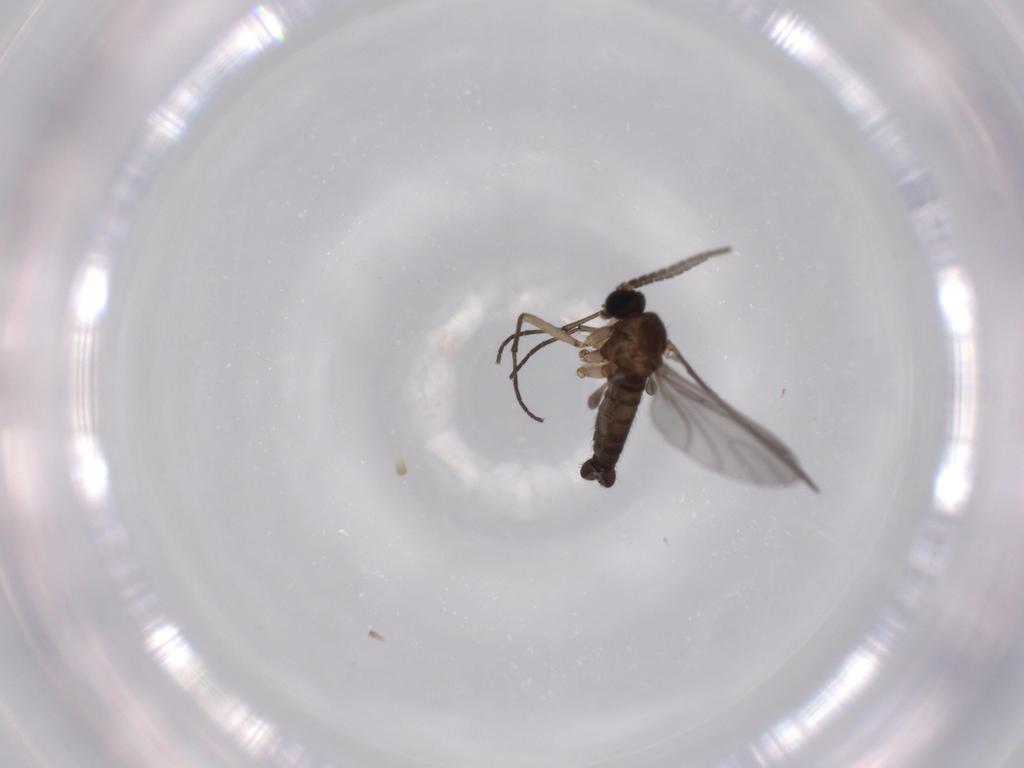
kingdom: Animalia
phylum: Arthropoda
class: Insecta
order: Diptera
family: Sciaridae
